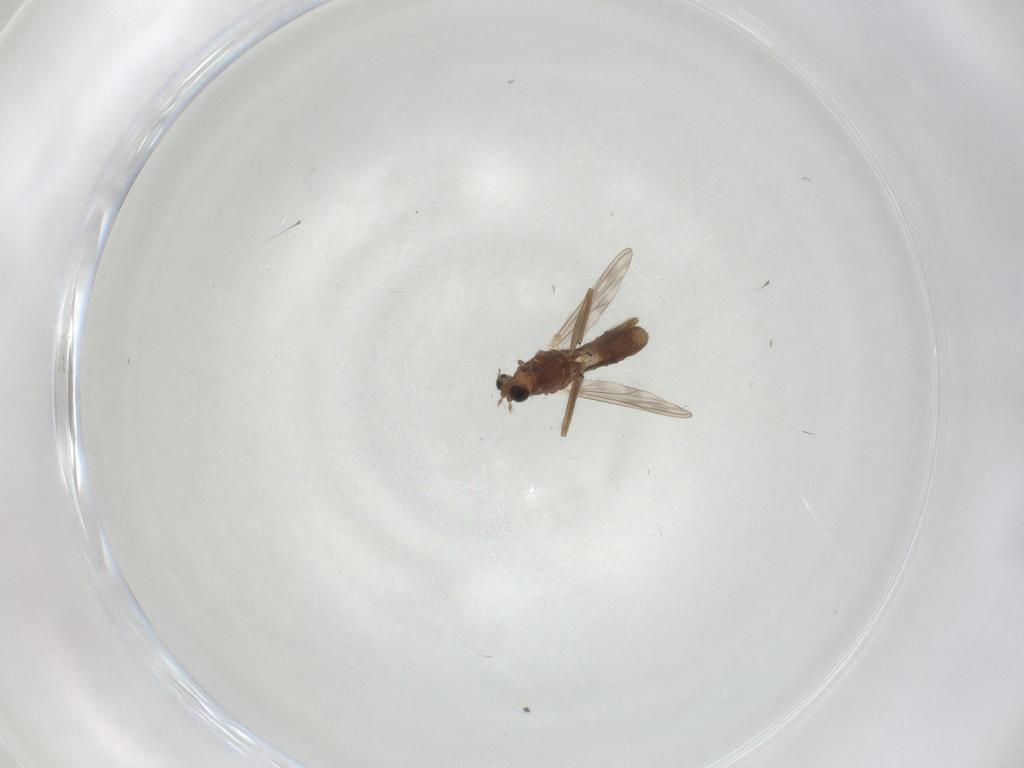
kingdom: Animalia
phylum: Arthropoda
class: Insecta
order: Diptera
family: Chironomidae
